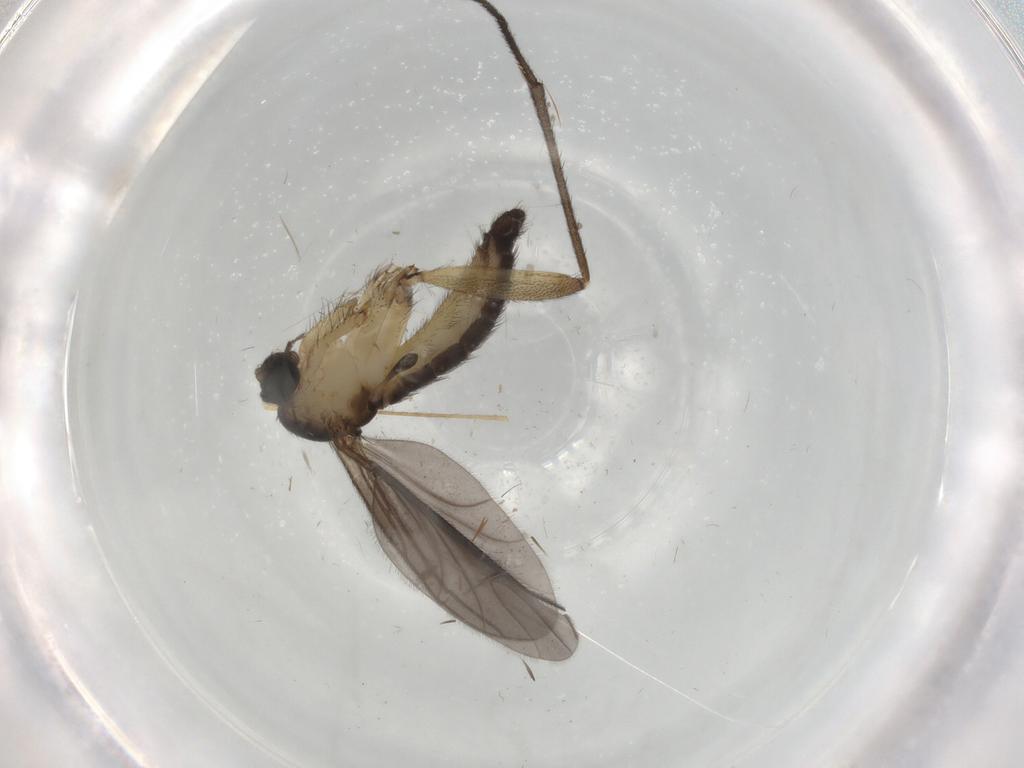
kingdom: Animalia
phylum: Arthropoda
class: Insecta
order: Diptera
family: Sciaridae
